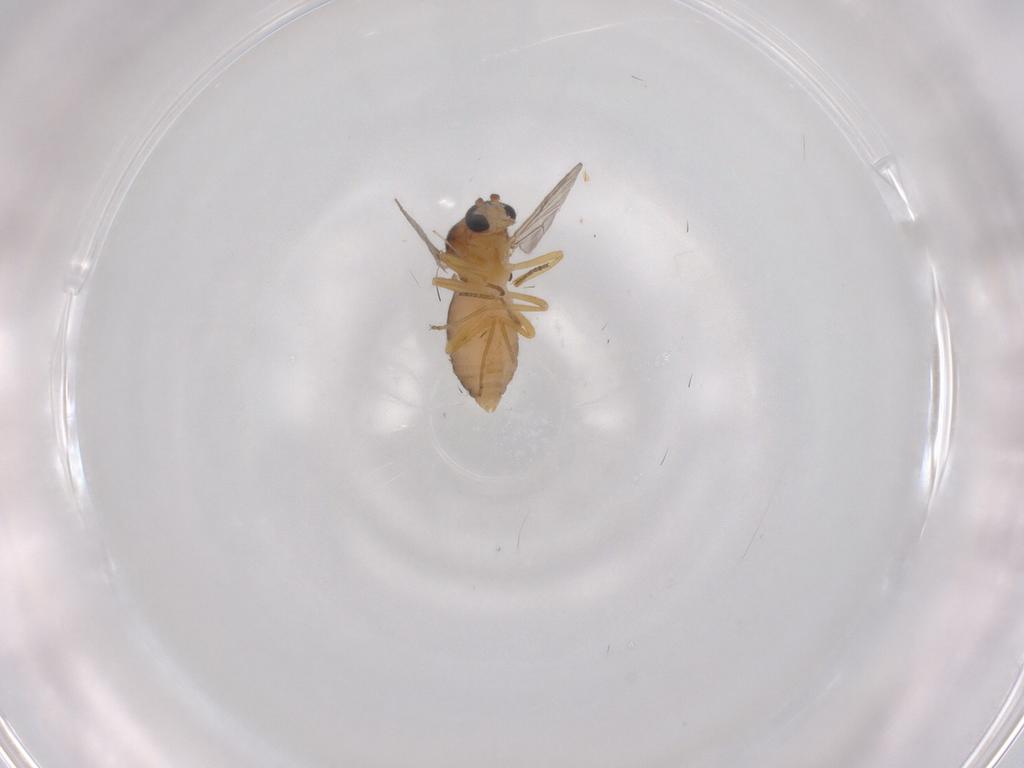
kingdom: Animalia
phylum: Arthropoda
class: Insecta
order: Diptera
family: Ceratopogonidae
